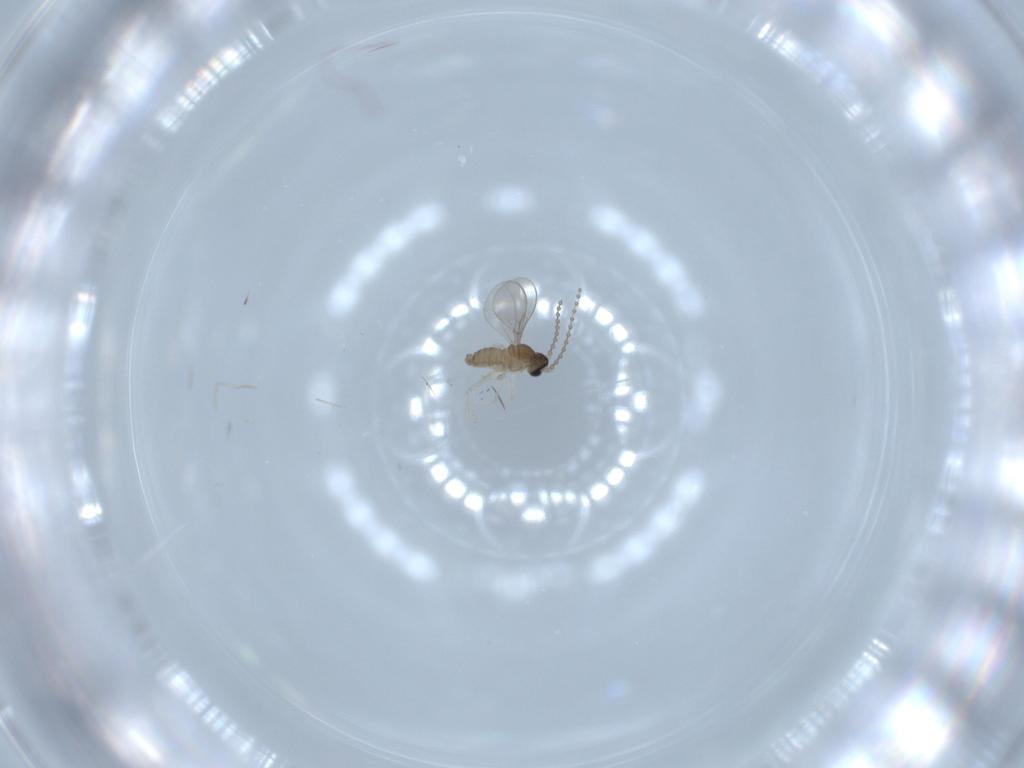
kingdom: Animalia
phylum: Arthropoda
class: Insecta
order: Diptera
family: Cecidomyiidae
